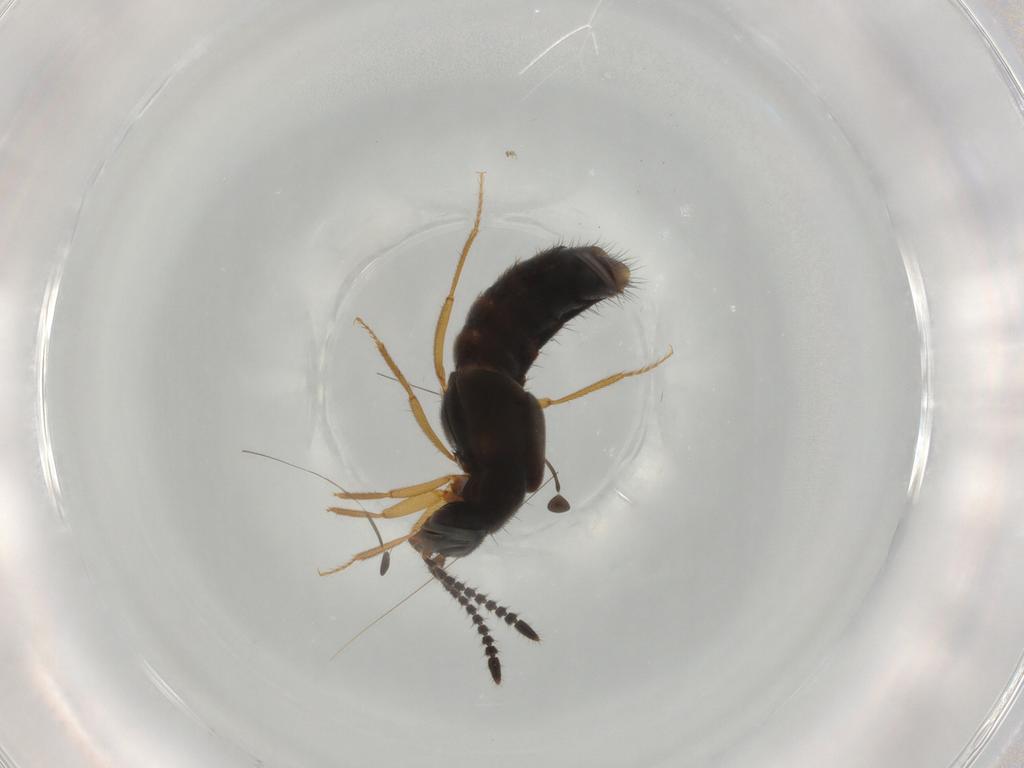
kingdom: Animalia
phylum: Arthropoda
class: Insecta
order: Coleoptera
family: Staphylinidae
